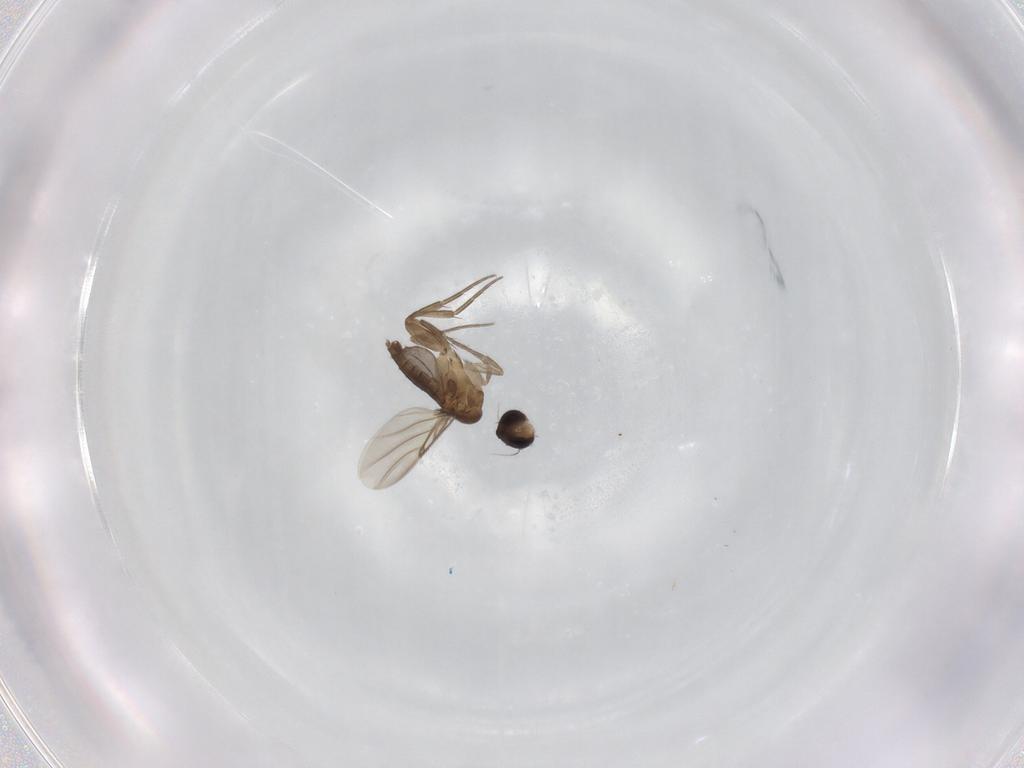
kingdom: Animalia
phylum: Arthropoda
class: Insecta
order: Diptera
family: Phoridae
